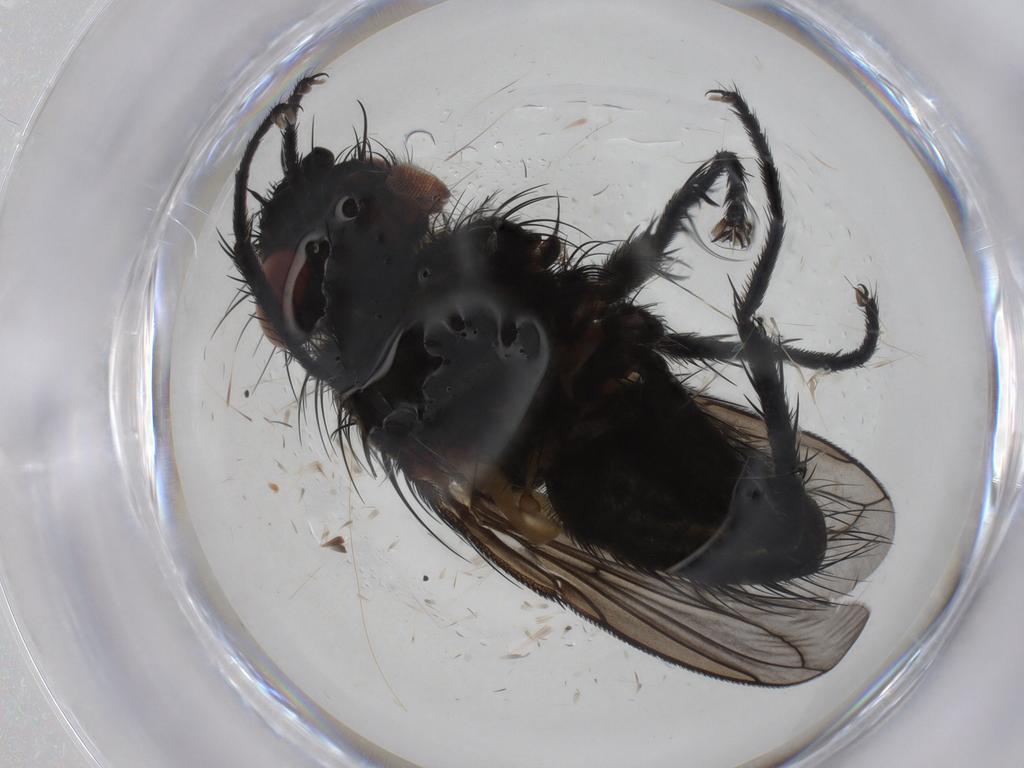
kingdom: Animalia
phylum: Arthropoda
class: Insecta
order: Diptera
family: Tachinidae
